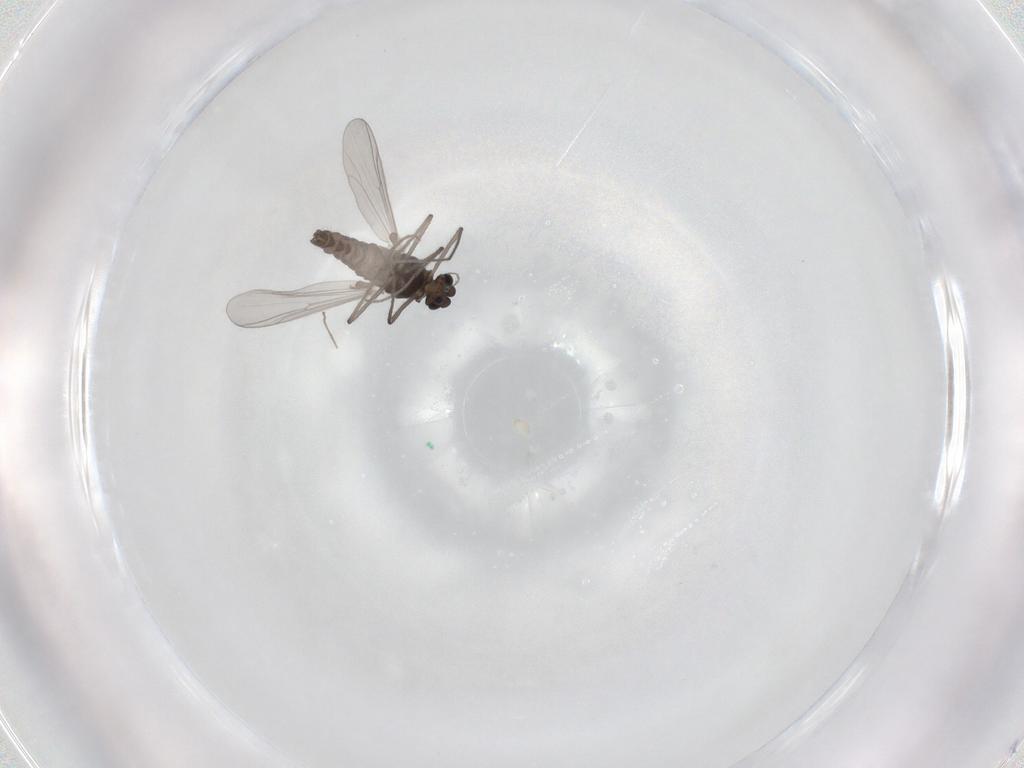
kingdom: Animalia
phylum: Arthropoda
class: Insecta
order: Diptera
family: Chironomidae
